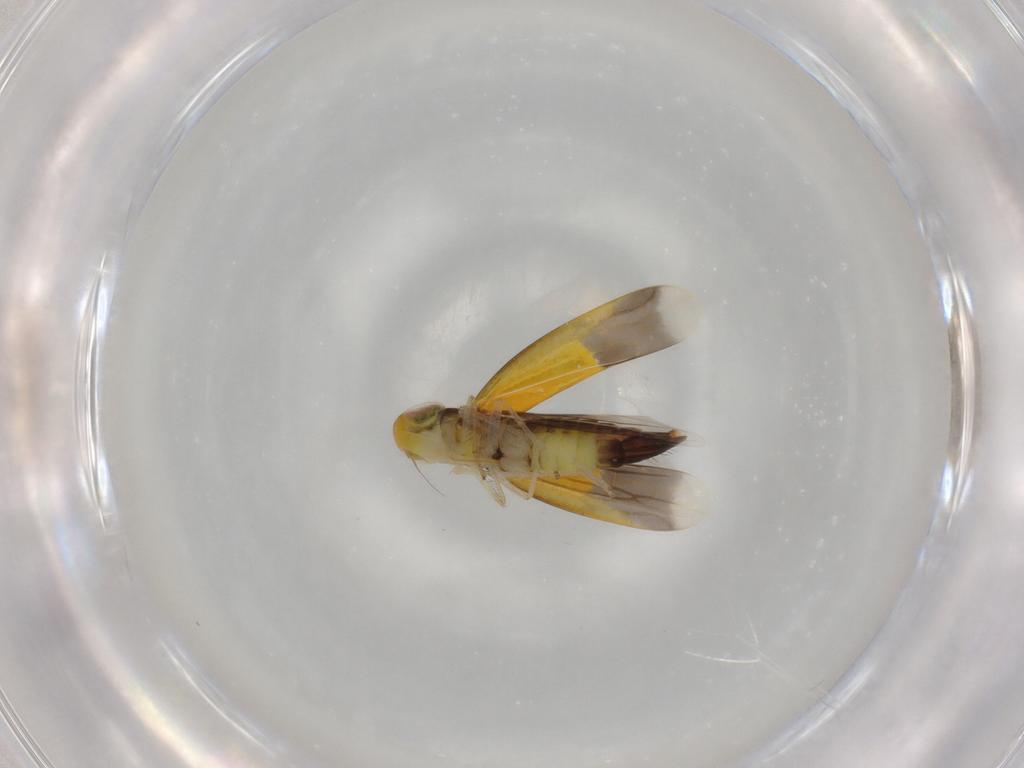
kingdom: Animalia
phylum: Arthropoda
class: Insecta
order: Hemiptera
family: Cicadellidae
